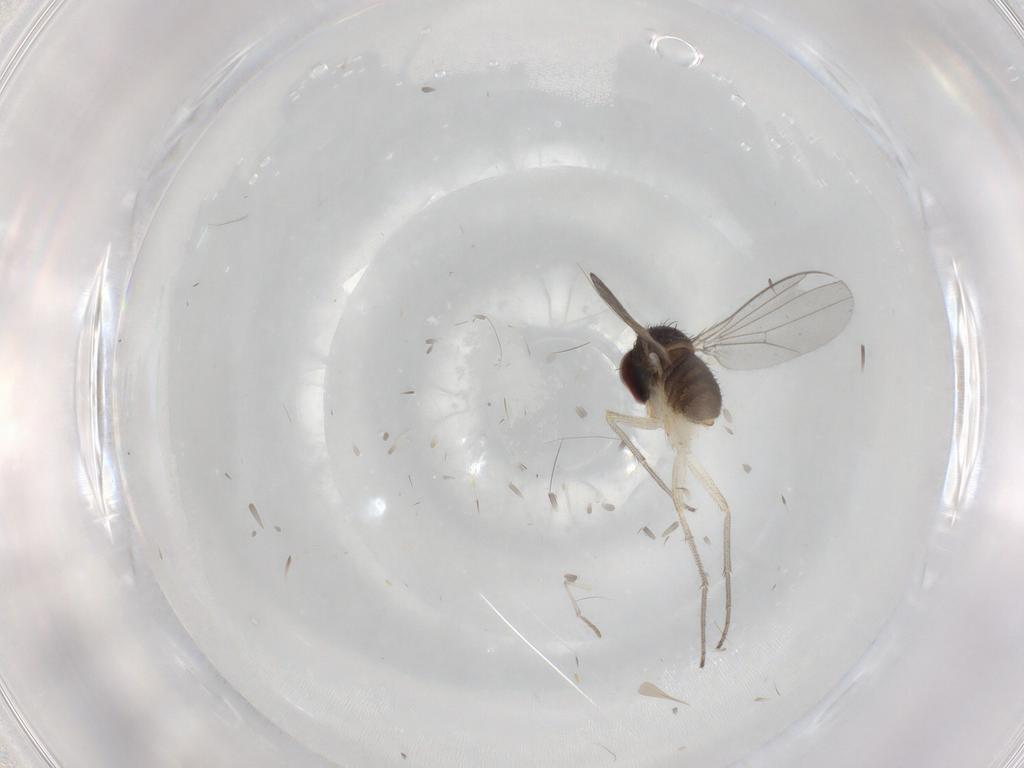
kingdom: Animalia
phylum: Arthropoda
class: Insecta
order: Diptera
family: Dolichopodidae
